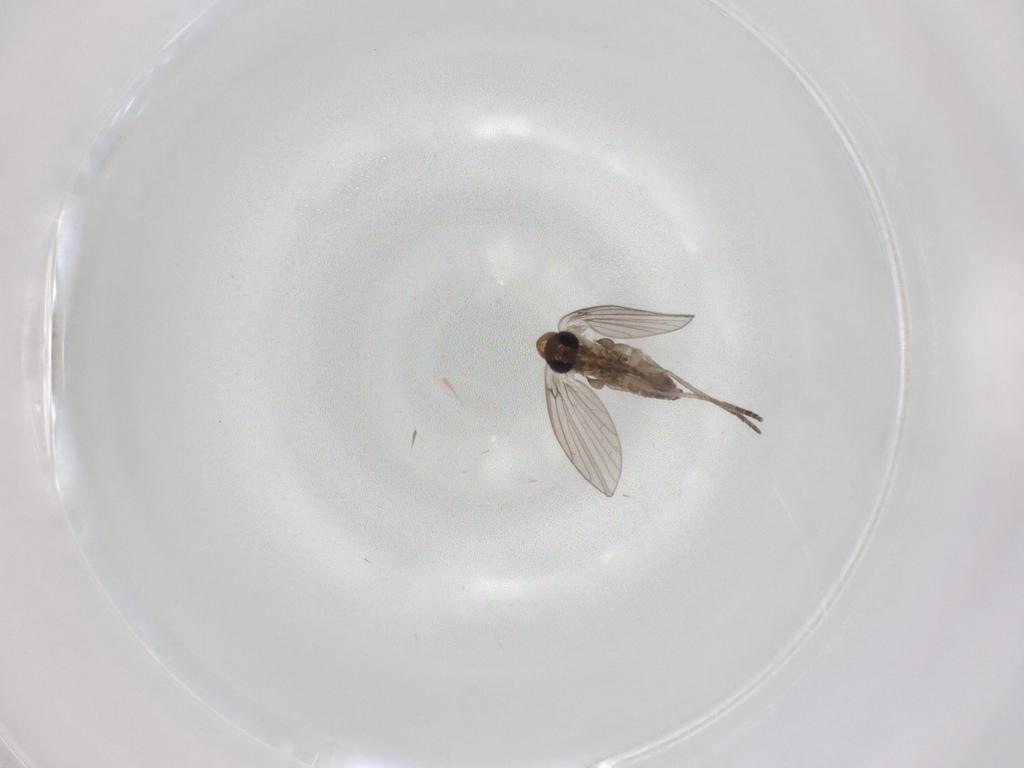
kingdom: Animalia
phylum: Arthropoda
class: Insecta
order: Diptera
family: Psychodidae
